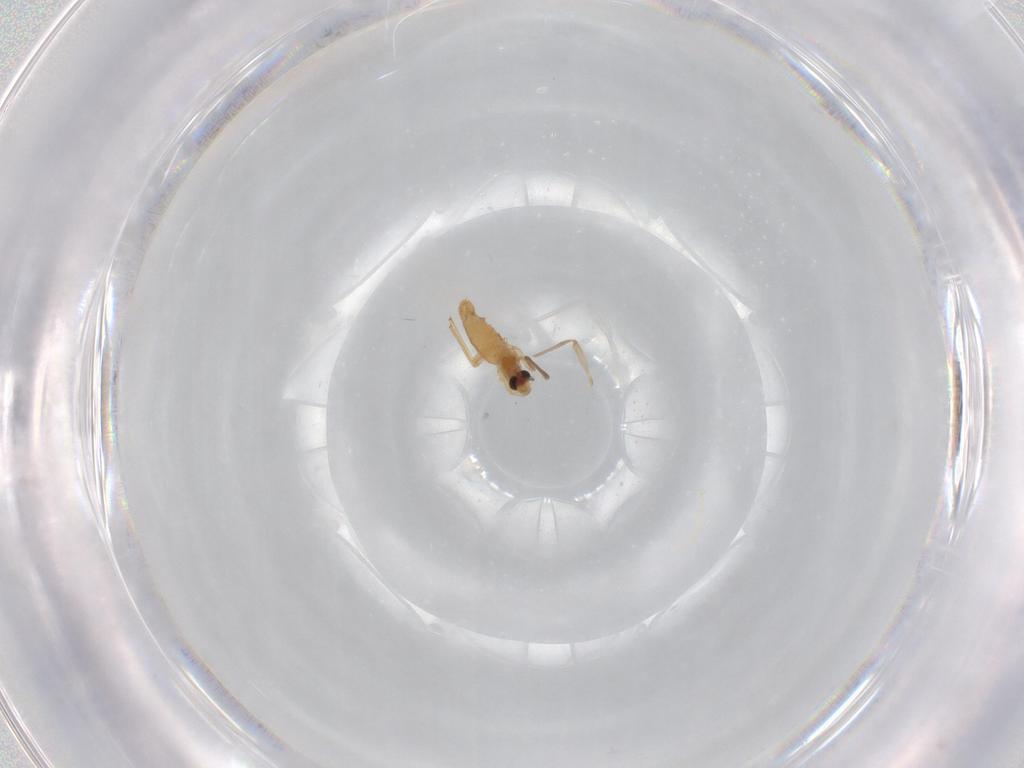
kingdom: Animalia
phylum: Arthropoda
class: Insecta
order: Diptera
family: Chironomidae
